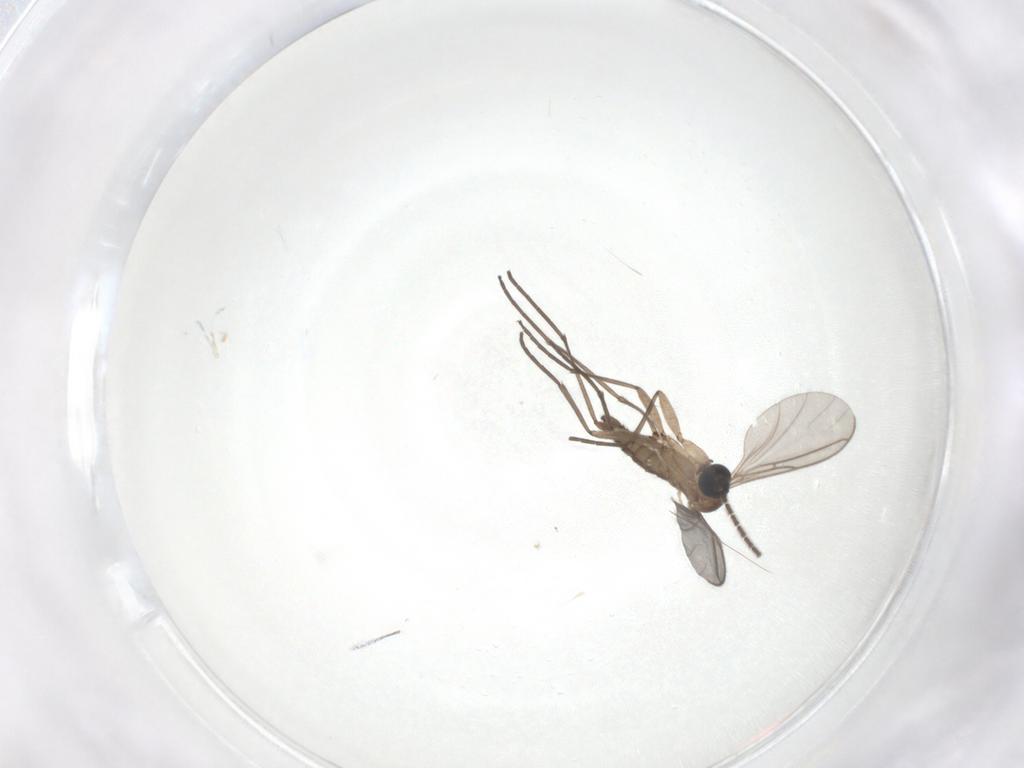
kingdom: Animalia
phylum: Arthropoda
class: Insecta
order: Diptera
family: Sciaridae
